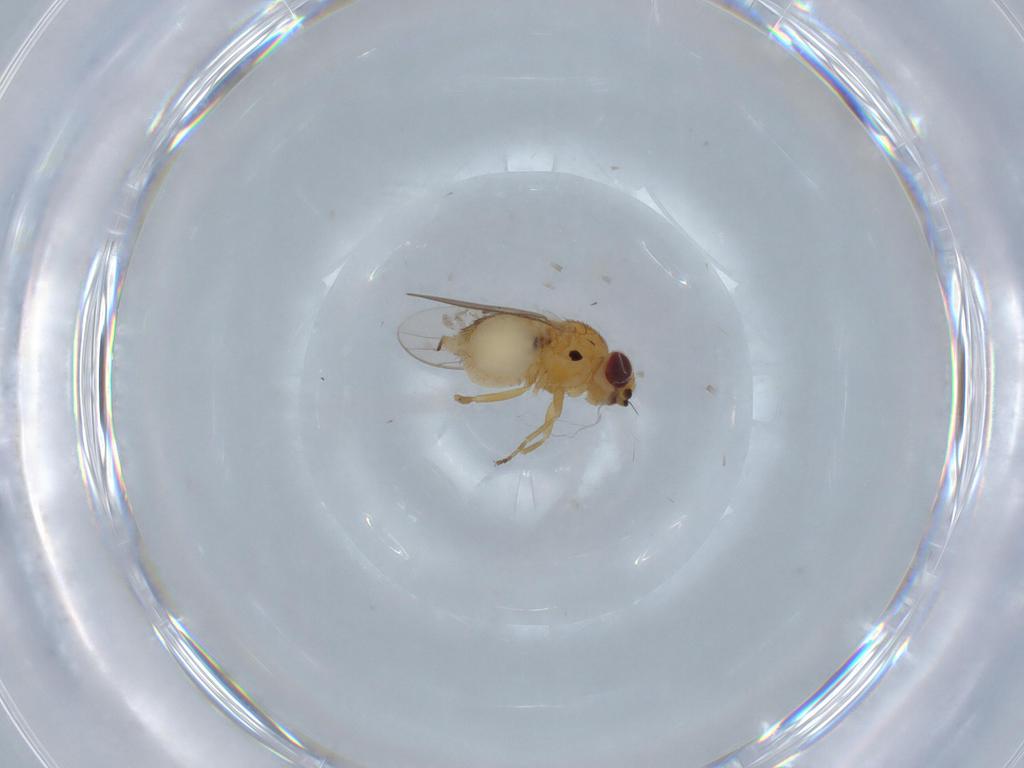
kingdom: Animalia
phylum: Arthropoda
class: Insecta
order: Diptera
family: Chloropidae
